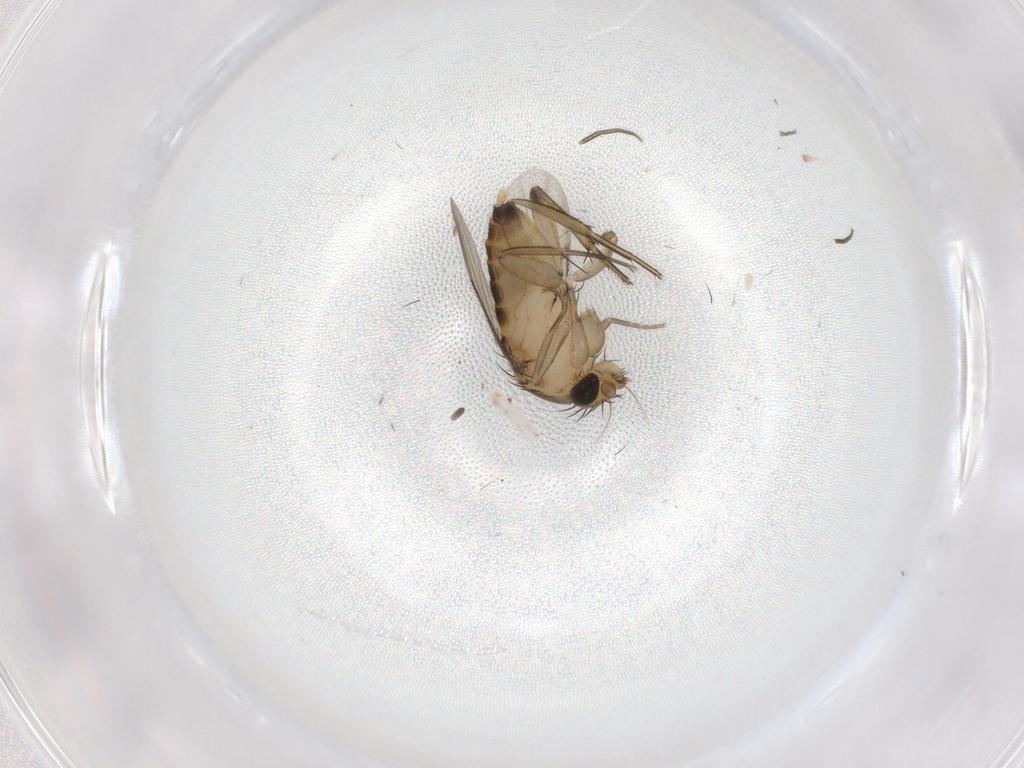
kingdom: Animalia
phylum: Arthropoda
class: Insecta
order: Diptera
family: Phoridae
